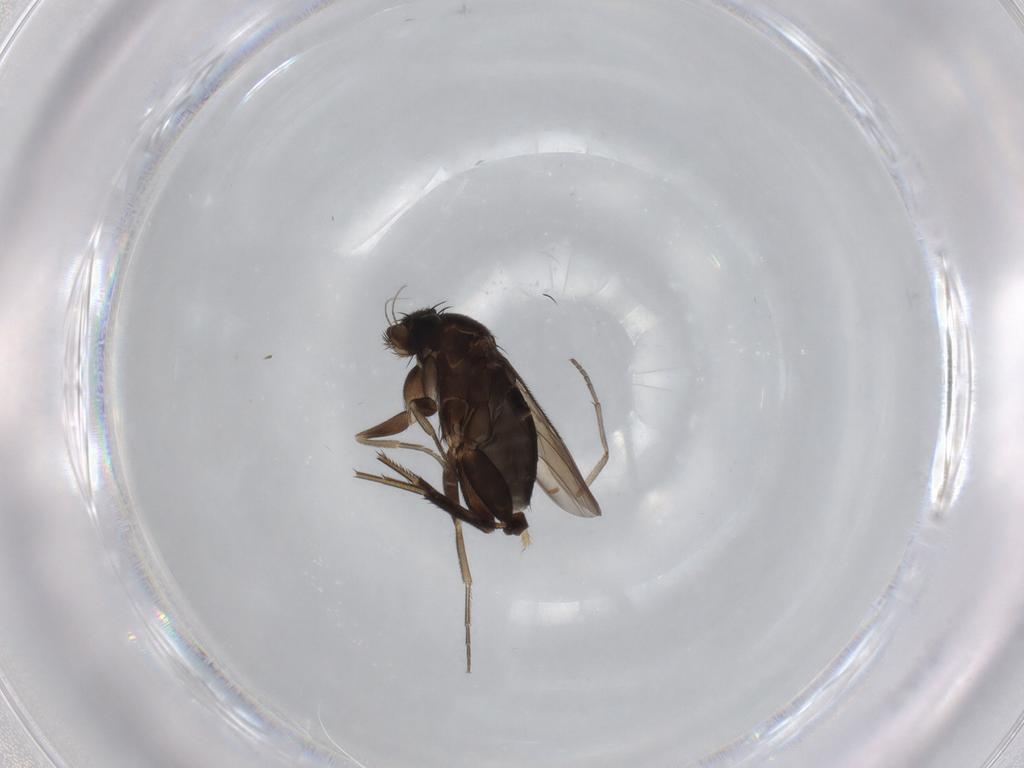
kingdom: Animalia
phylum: Arthropoda
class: Insecta
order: Diptera
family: Phoridae
